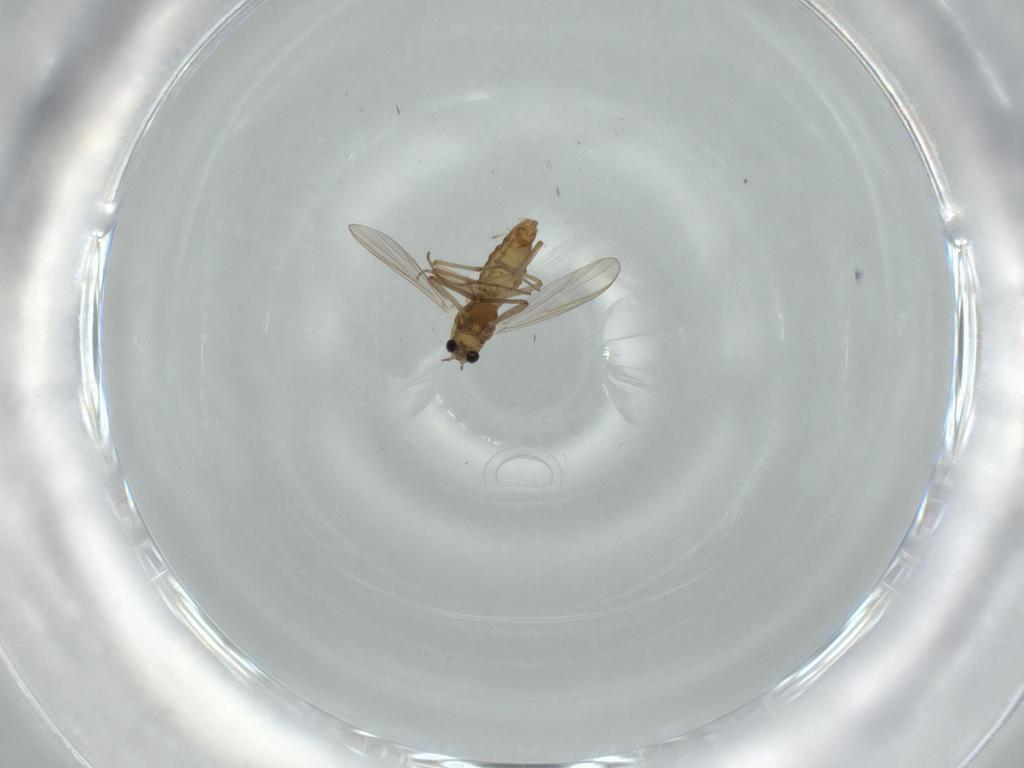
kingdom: Animalia
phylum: Arthropoda
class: Insecta
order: Diptera
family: Chironomidae
